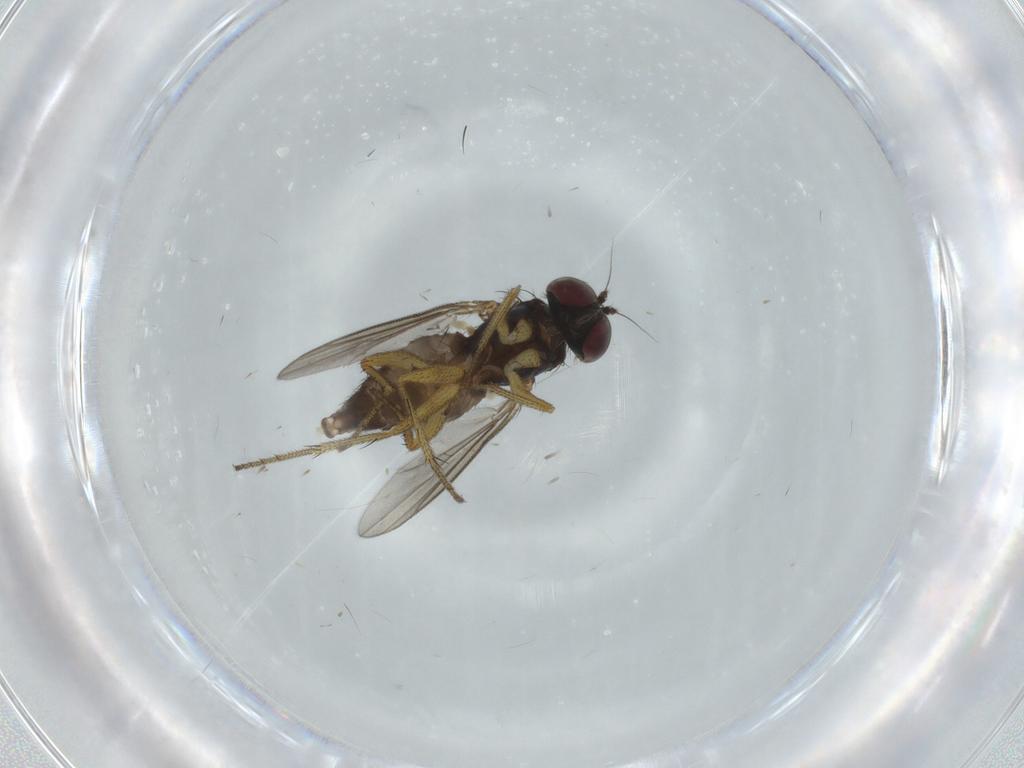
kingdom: Animalia
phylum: Arthropoda
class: Insecta
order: Diptera
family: Dolichopodidae
